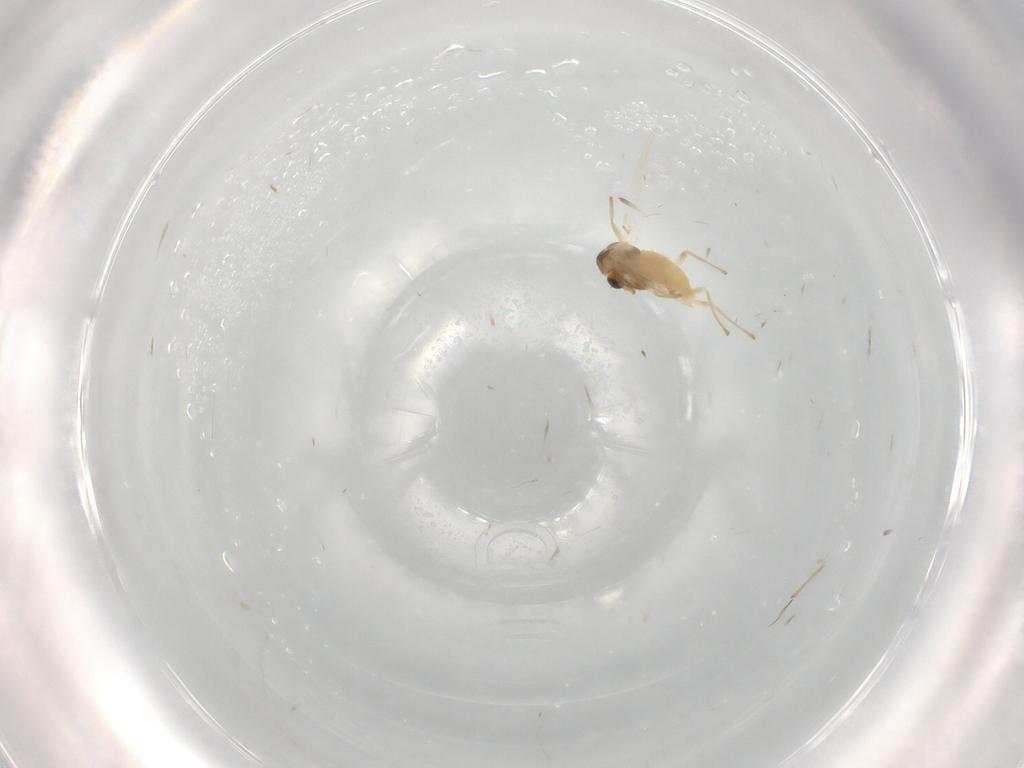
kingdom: Animalia
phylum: Arthropoda
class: Insecta
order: Diptera
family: Chironomidae
